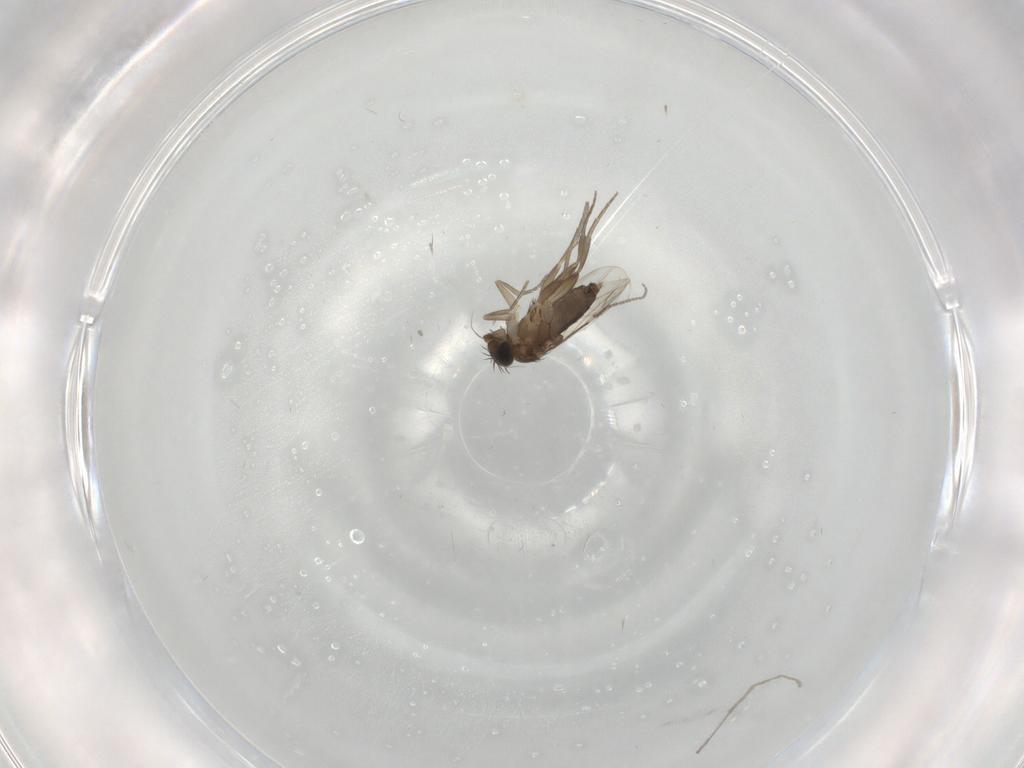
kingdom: Animalia
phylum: Arthropoda
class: Insecta
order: Diptera
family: Phoridae
